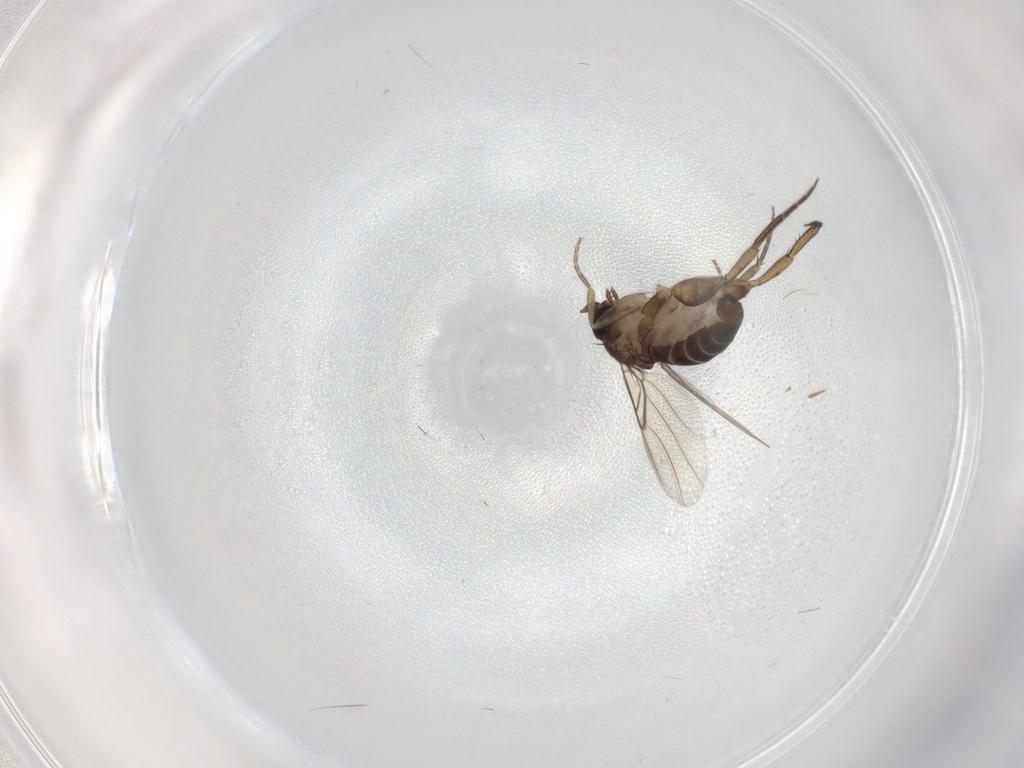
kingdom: Animalia
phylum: Arthropoda
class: Insecta
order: Diptera
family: Phoridae
